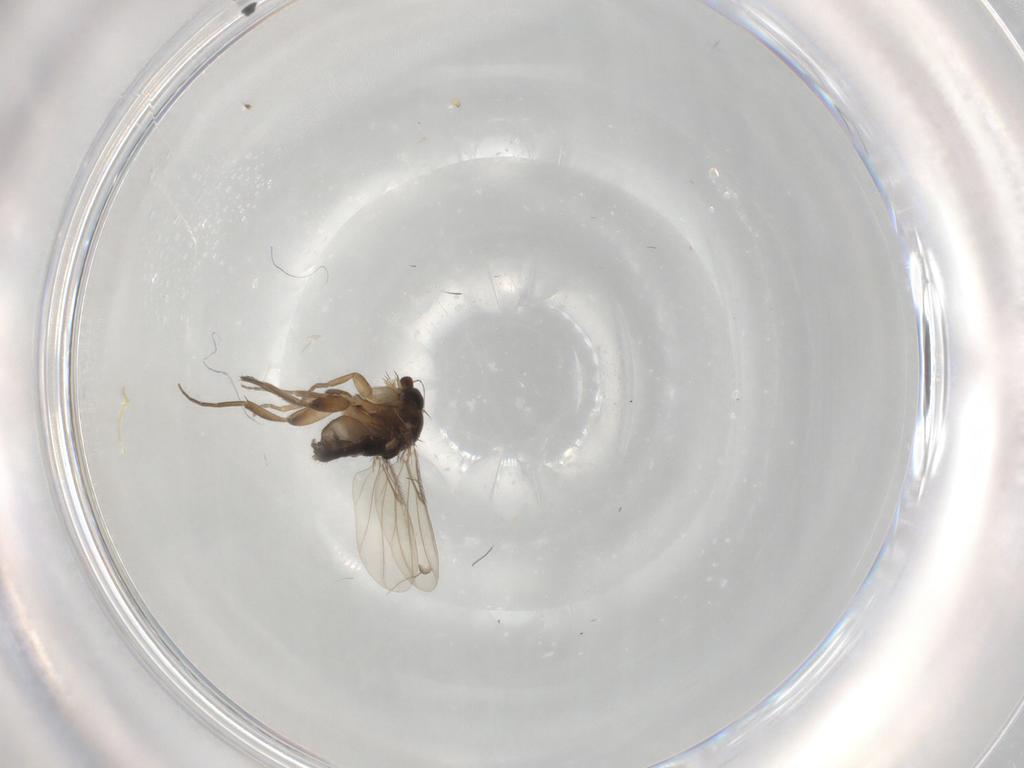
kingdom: Animalia
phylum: Arthropoda
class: Insecta
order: Diptera
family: Phoridae
